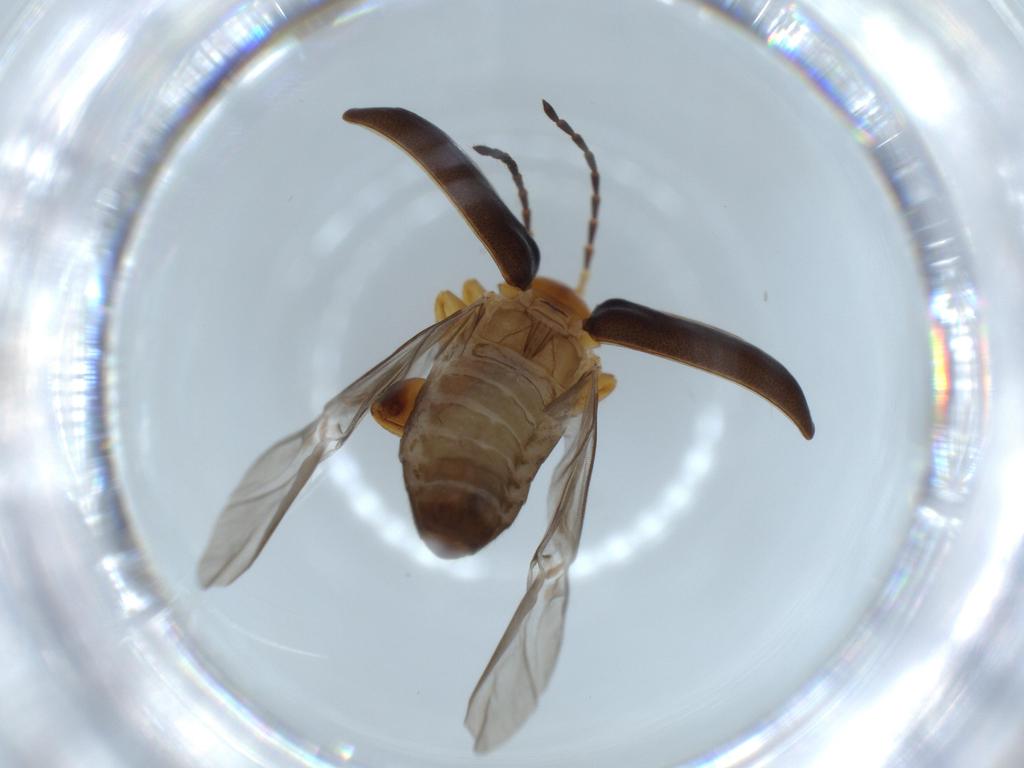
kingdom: Animalia
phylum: Arthropoda
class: Insecta
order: Coleoptera
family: Chrysomelidae
